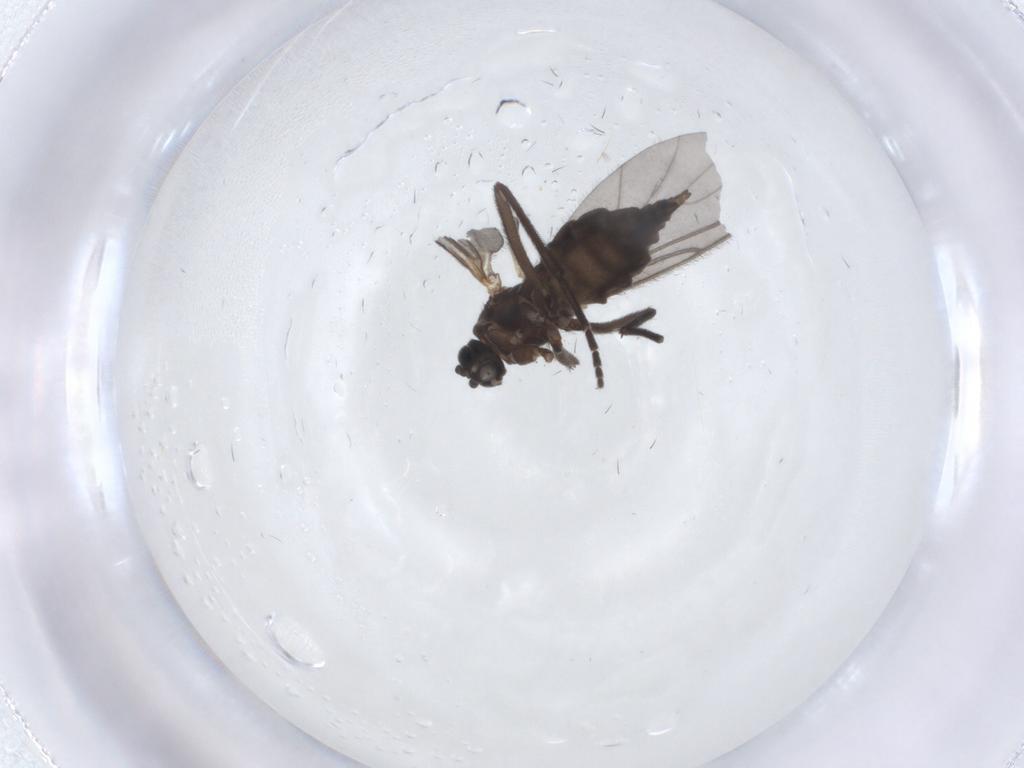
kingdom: Animalia
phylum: Arthropoda
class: Insecta
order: Diptera
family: Sciaridae
